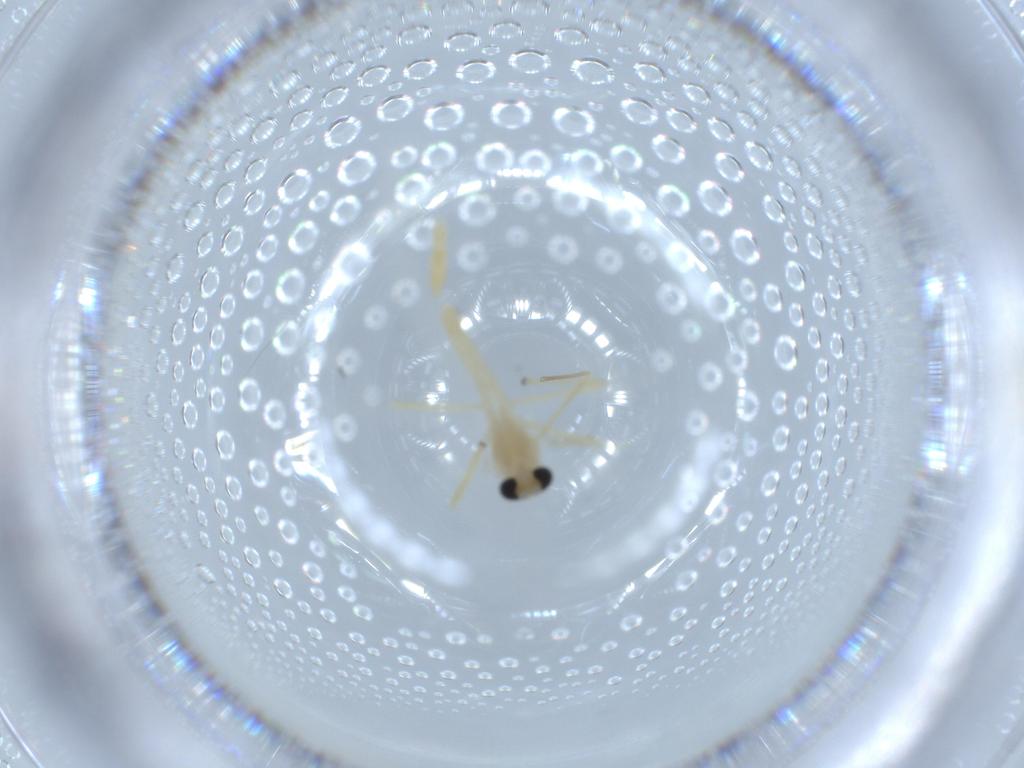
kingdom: Animalia
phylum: Arthropoda
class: Insecta
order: Diptera
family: Chironomidae
